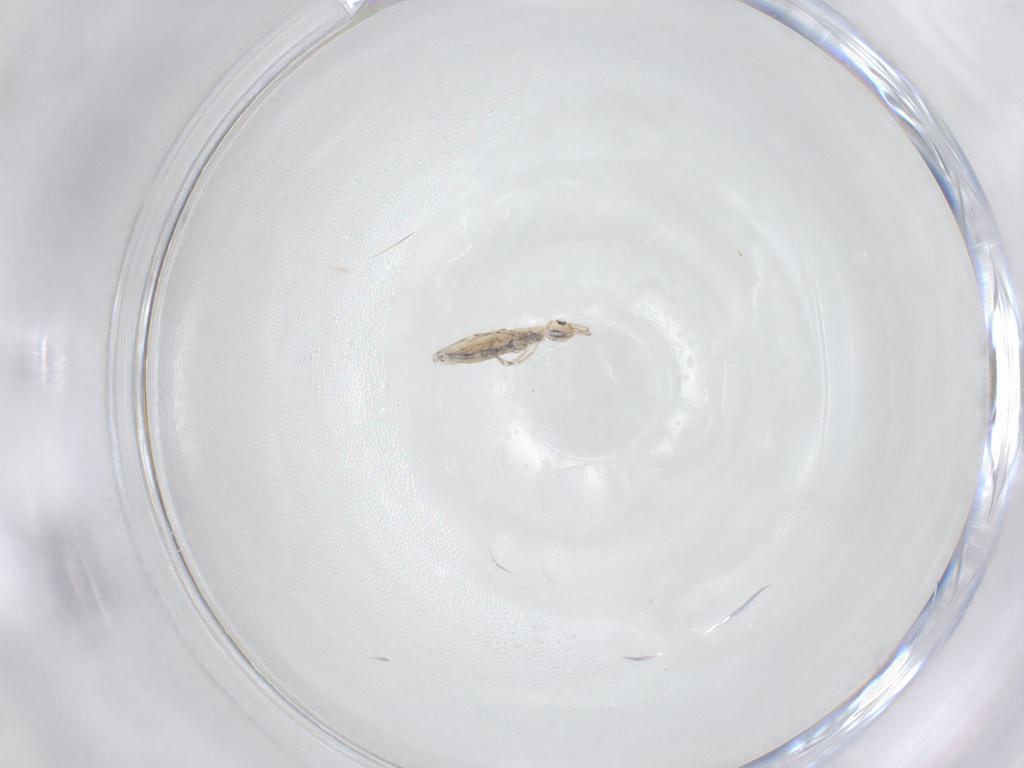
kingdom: Animalia
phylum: Arthropoda
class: Collembola
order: Entomobryomorpha
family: Entomobryidae
